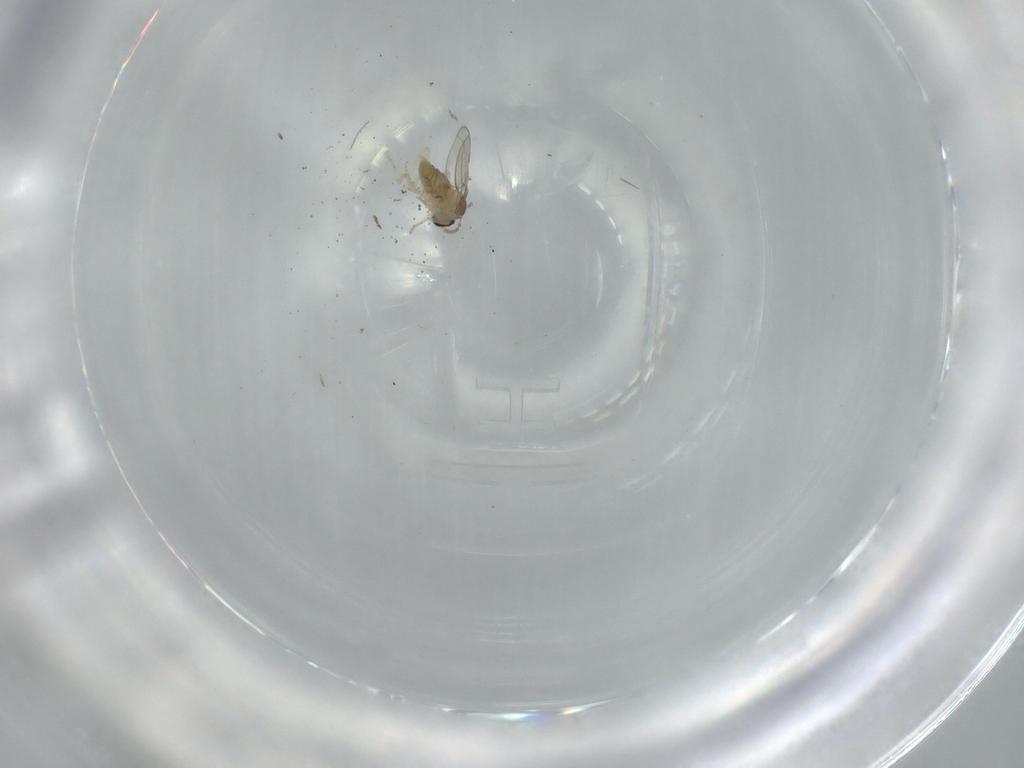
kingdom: Animalia
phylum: Arthropoda
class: Insecta
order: Diptera
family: Cecidomyiidae
